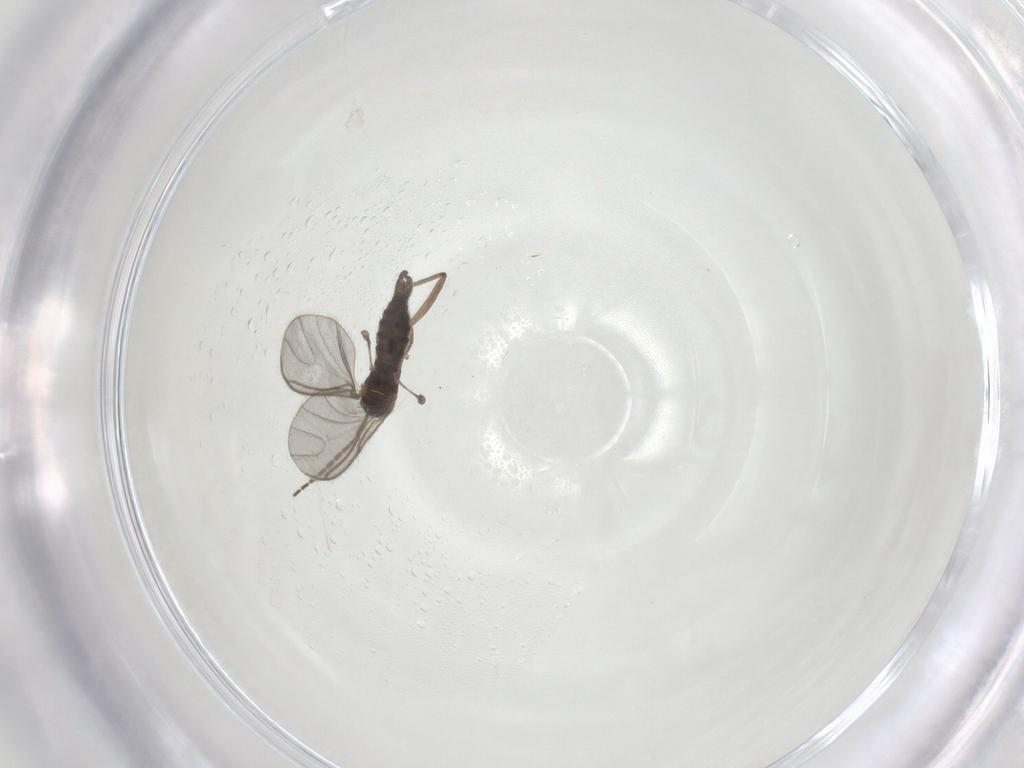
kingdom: Animalia
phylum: Arthropoda
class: Insecta
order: Diptera
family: Sciaridae
